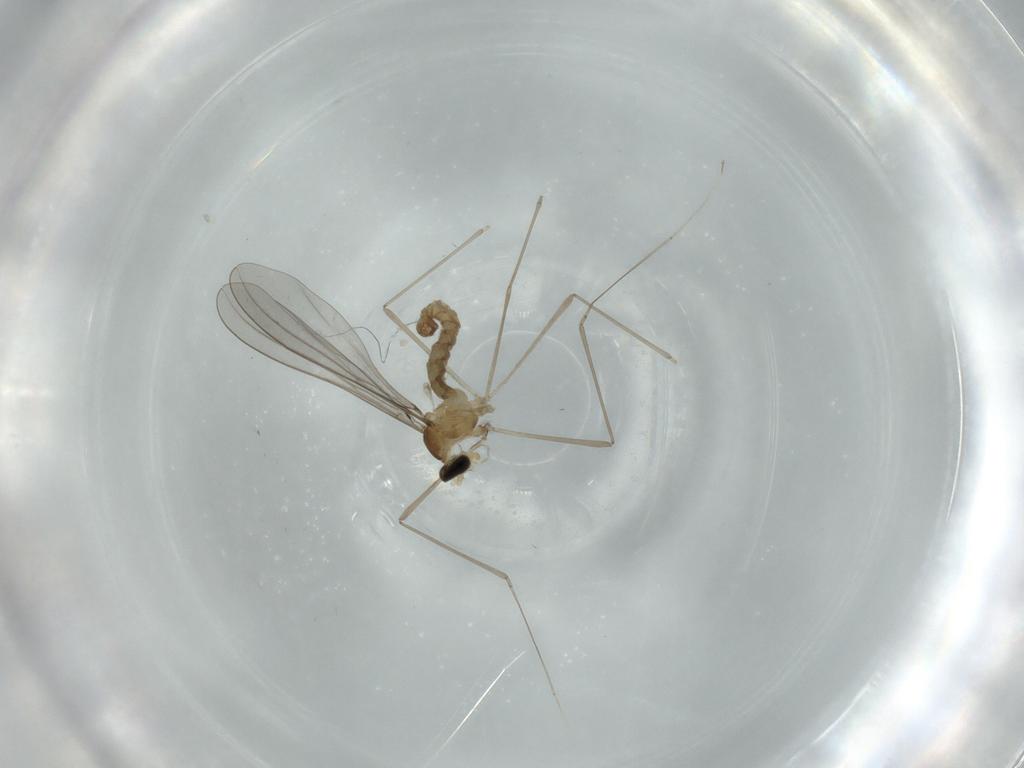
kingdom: Animalia
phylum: Arthropoda
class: Insecta
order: Diptera
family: Cecidomyiidae
